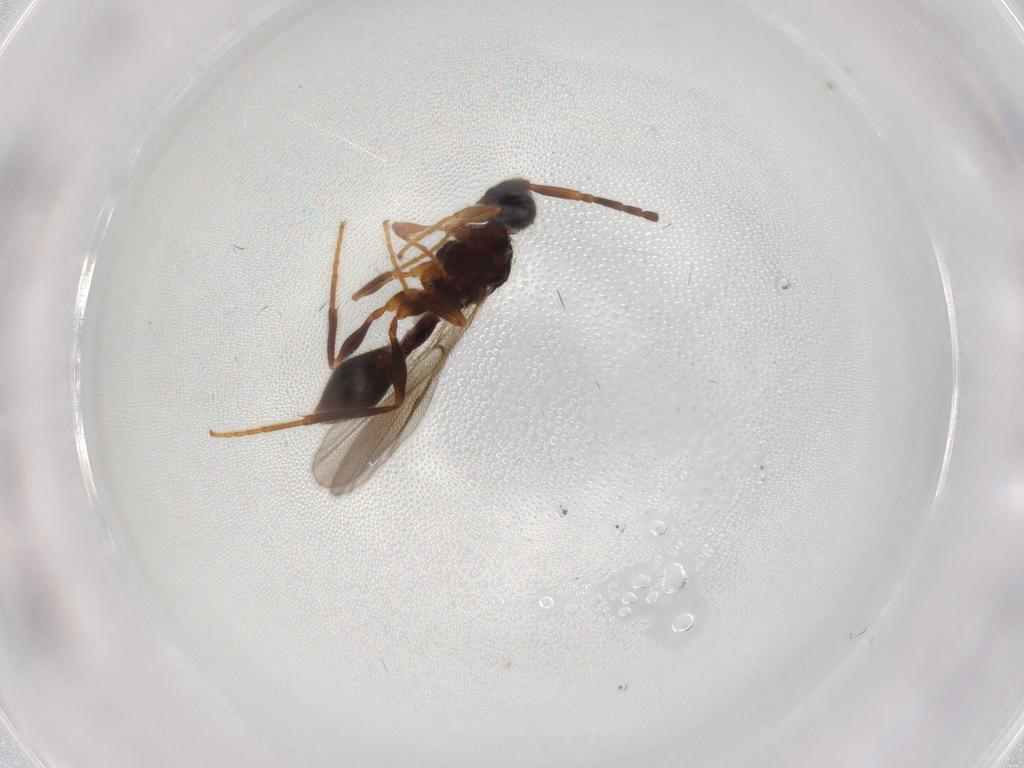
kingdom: Animalia
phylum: Arthropoda
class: Insecta
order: Hymenoptera
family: Diapriidae
